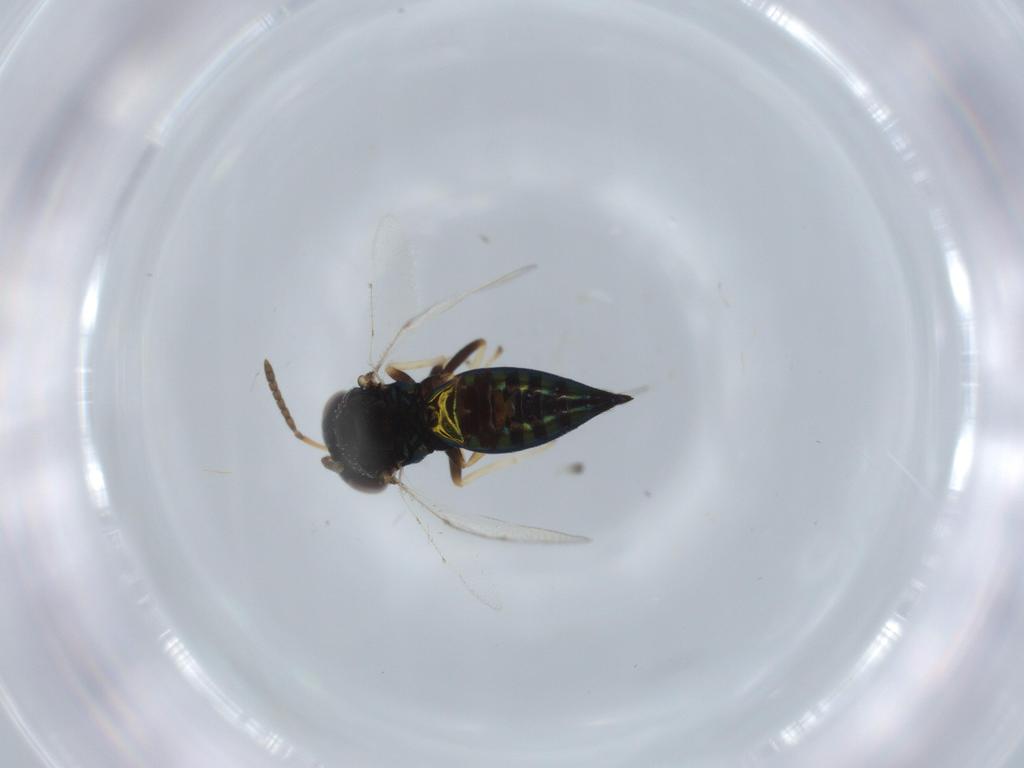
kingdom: Animalia
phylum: Arthropoda
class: Insecta
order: Hymenoptera
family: Pteromalidae
